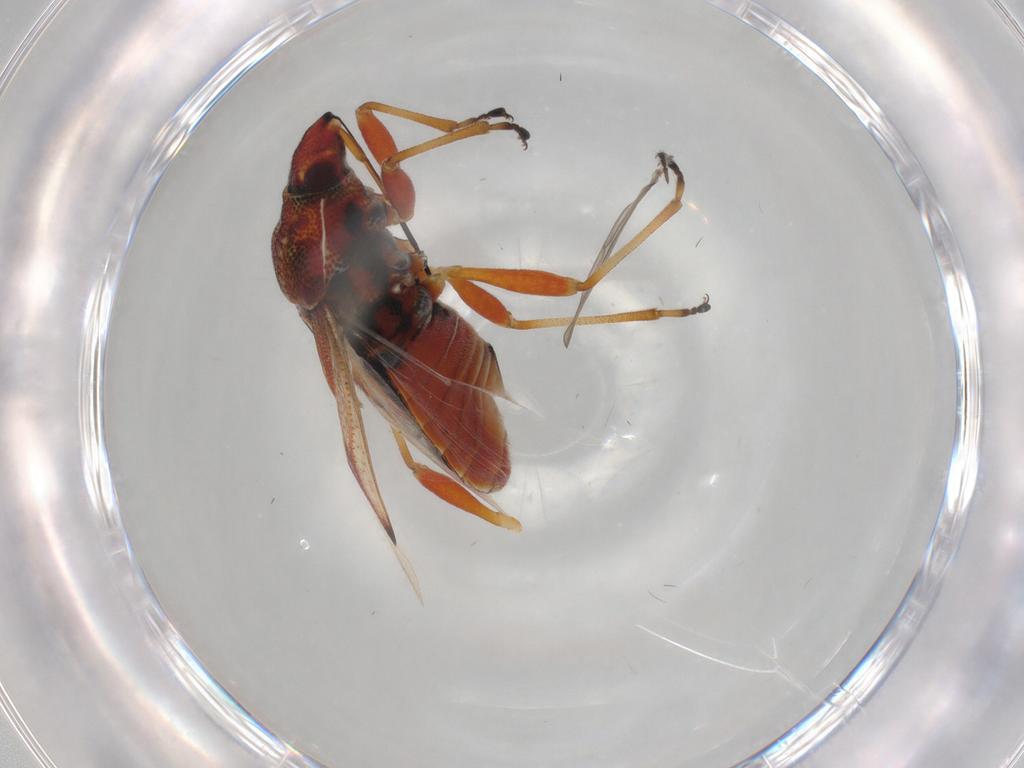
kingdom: Animalia
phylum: Arthropoda
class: Insecta
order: Hemiptera
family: Lygaeidae
